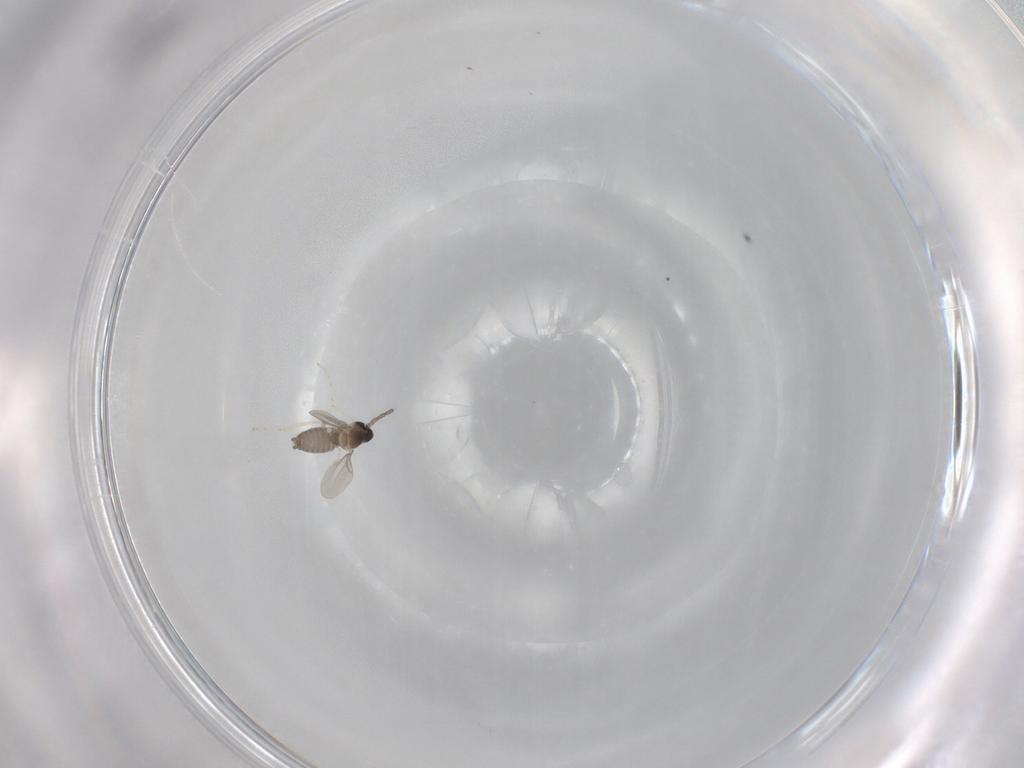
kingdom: Animalia
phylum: Arthropoda
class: Insecta
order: Diptera
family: Cecidomyiidae
